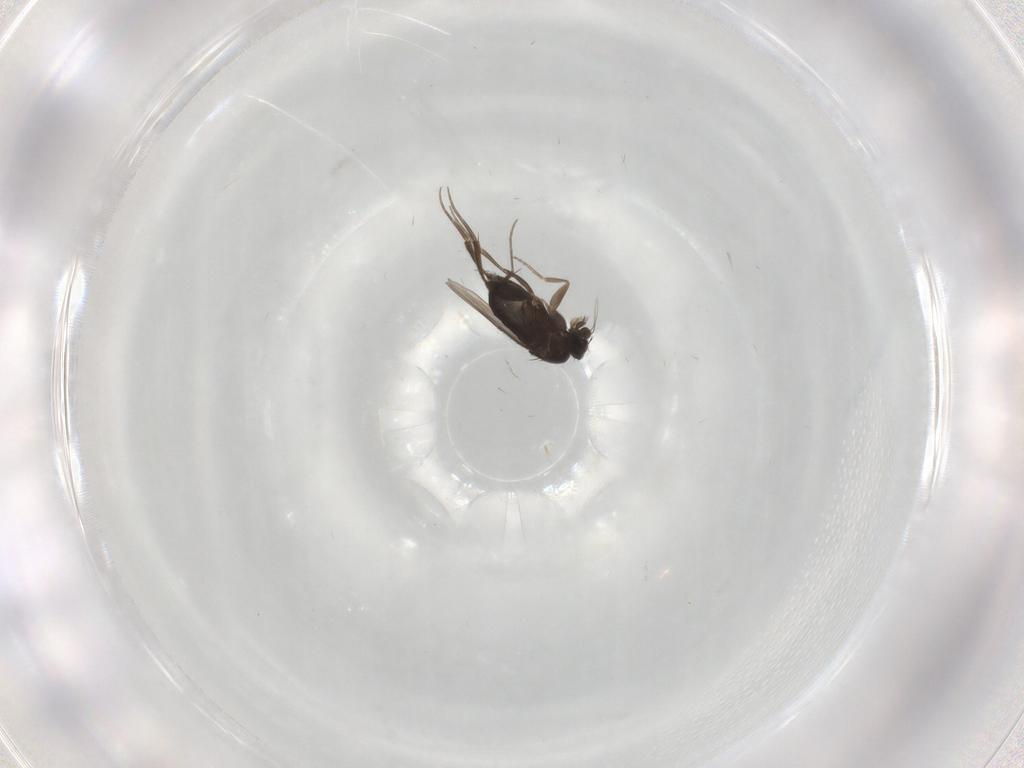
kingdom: Animalia
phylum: Arthropoda
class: Insecta
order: Diptera
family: Phoridae
